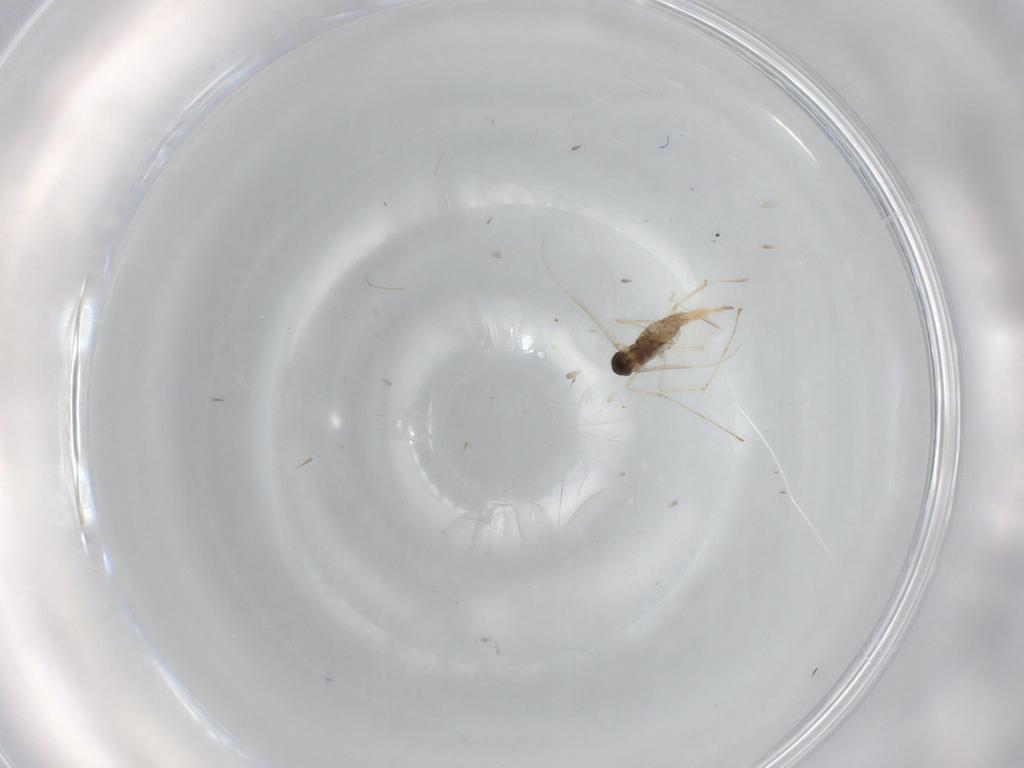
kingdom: Animalia
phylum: Arthropoda
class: Insecta
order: Diptera
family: Cecidomyiidae
